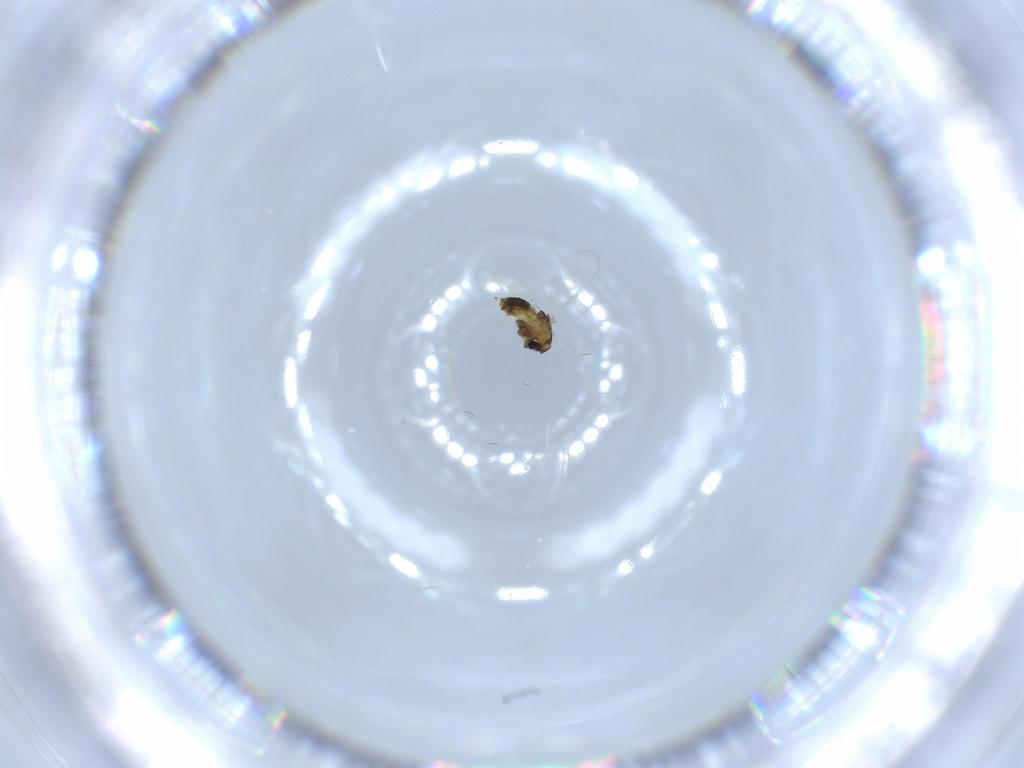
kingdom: Animalia
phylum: Arthropoda
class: Insecta
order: Diptera
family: Chironomidae
